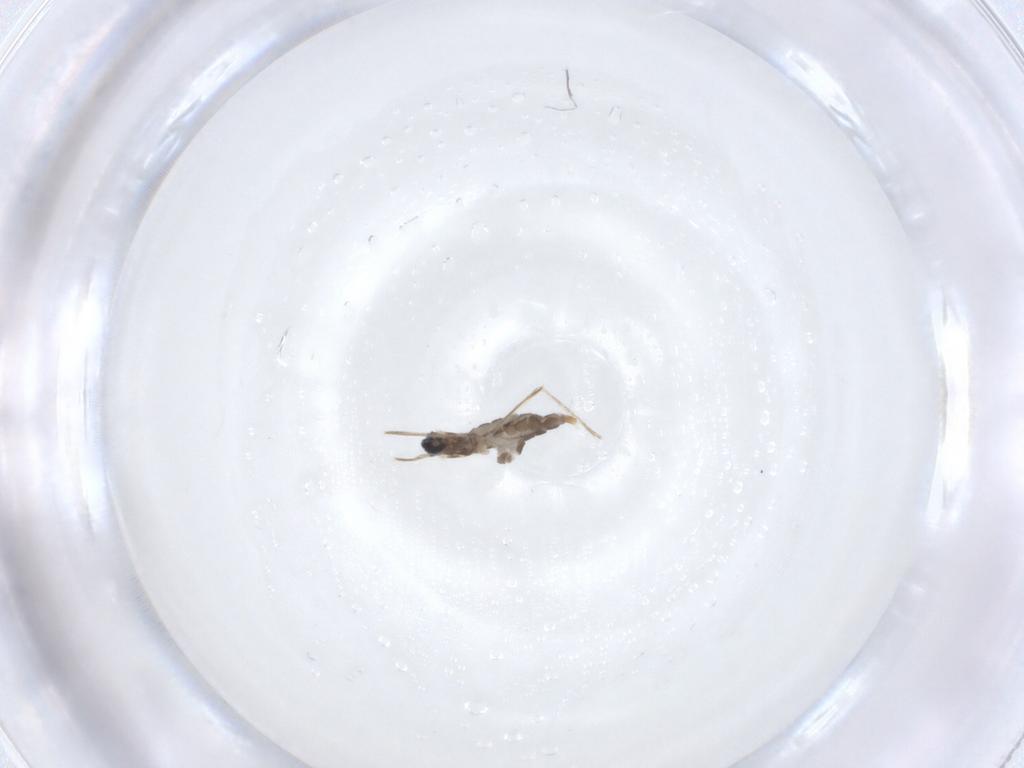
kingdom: Animalia
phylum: Arthropoda
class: Insecta
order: Diptera
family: Cecidomyiidae
